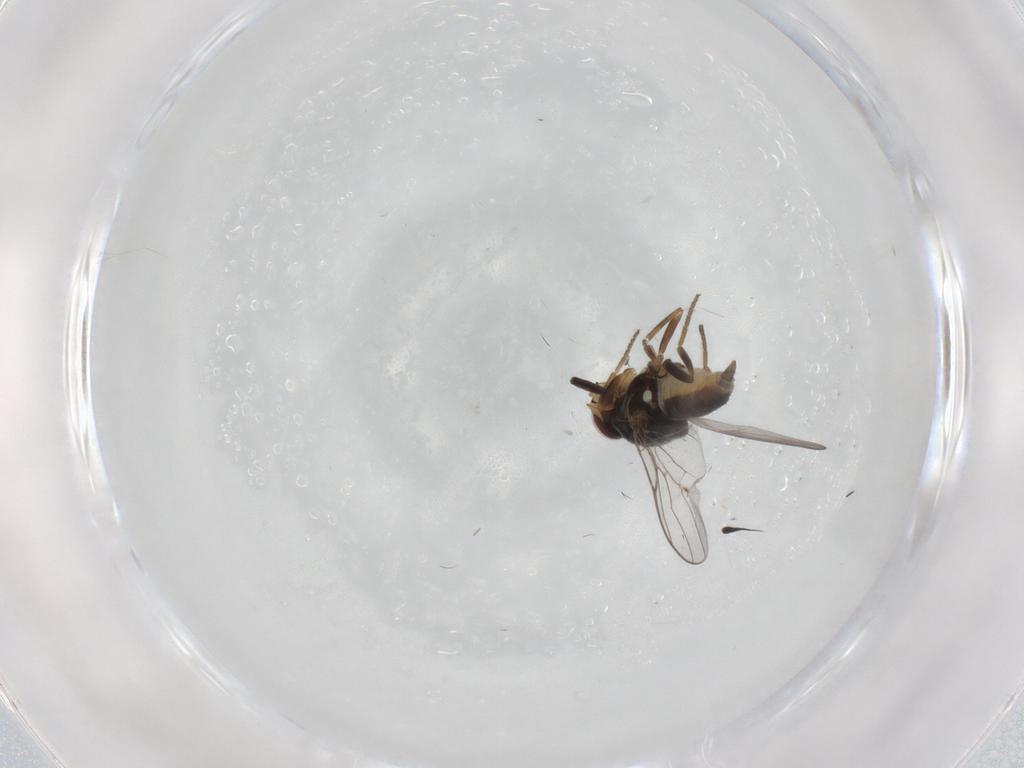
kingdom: Animalia
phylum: Arthropoda
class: Insecta
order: Diptera
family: Chloropidae
